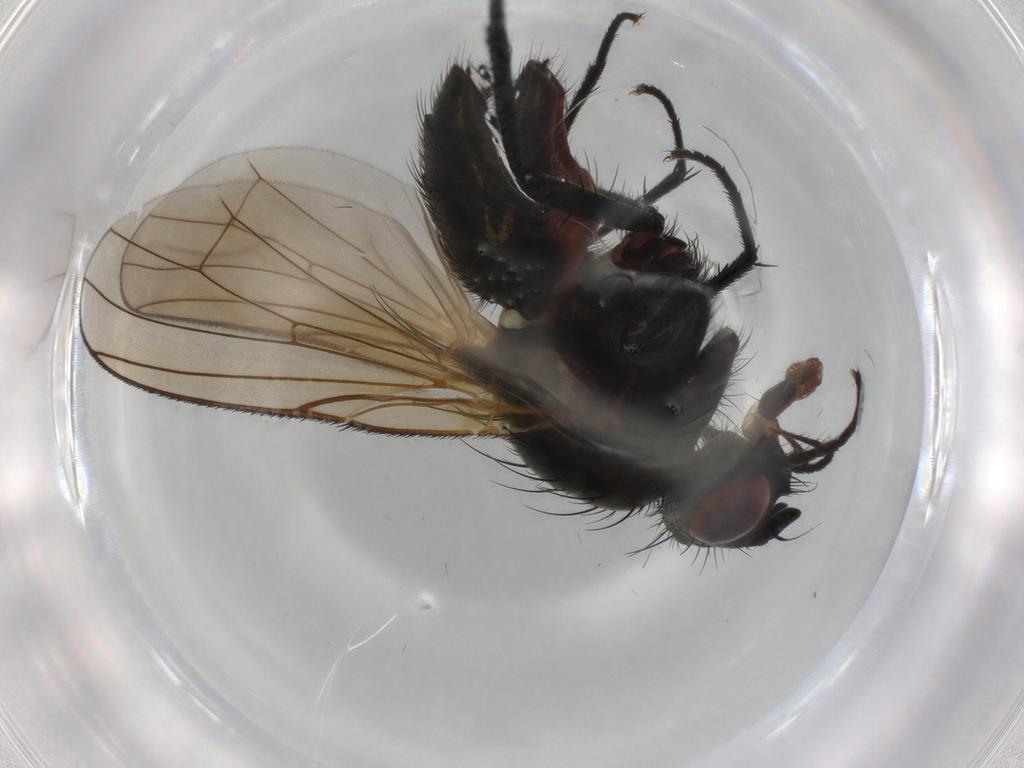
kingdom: Animalia
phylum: Arthropoda
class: Insecta
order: Diptera
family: Anthomyiidae
